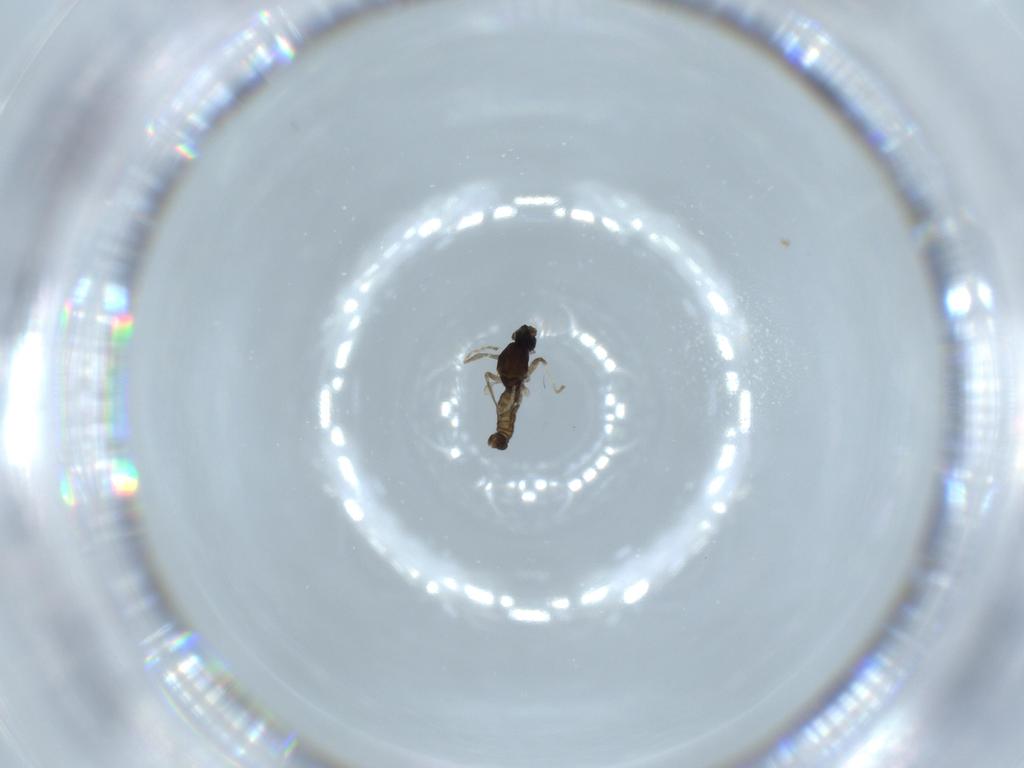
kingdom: Animalia
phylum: Arthropoda
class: Insecta
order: Diptera
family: Cecidomyiidae
